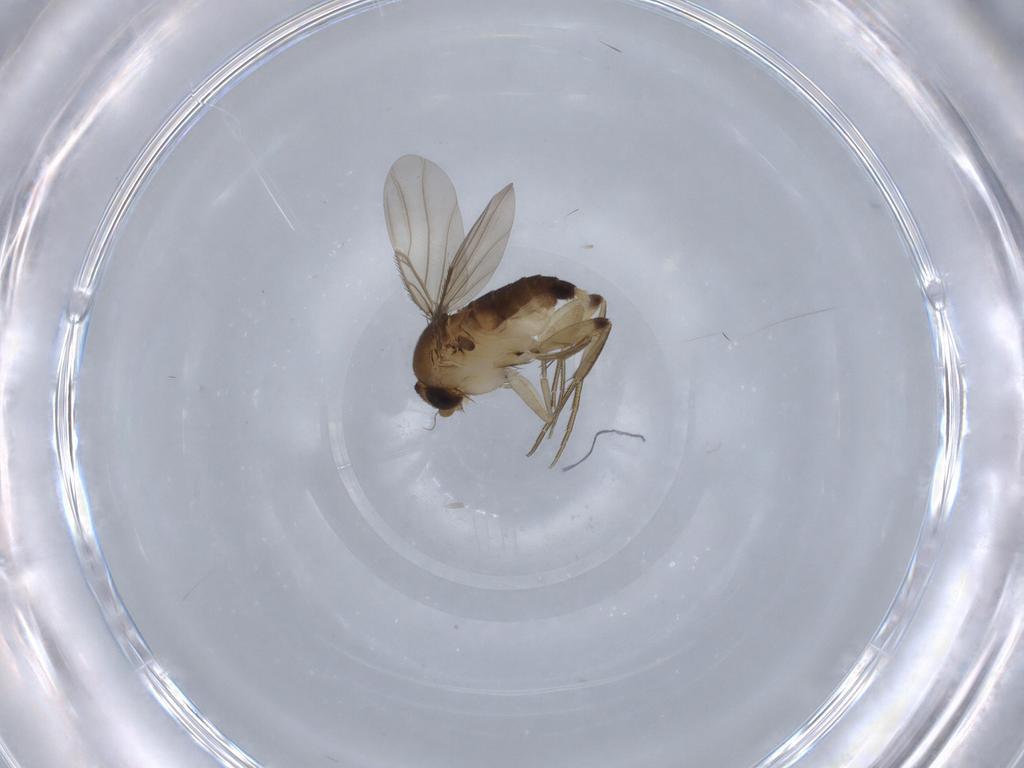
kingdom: Animalia
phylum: Arthropoda
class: Insecta
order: Diptera
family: Phoridae
